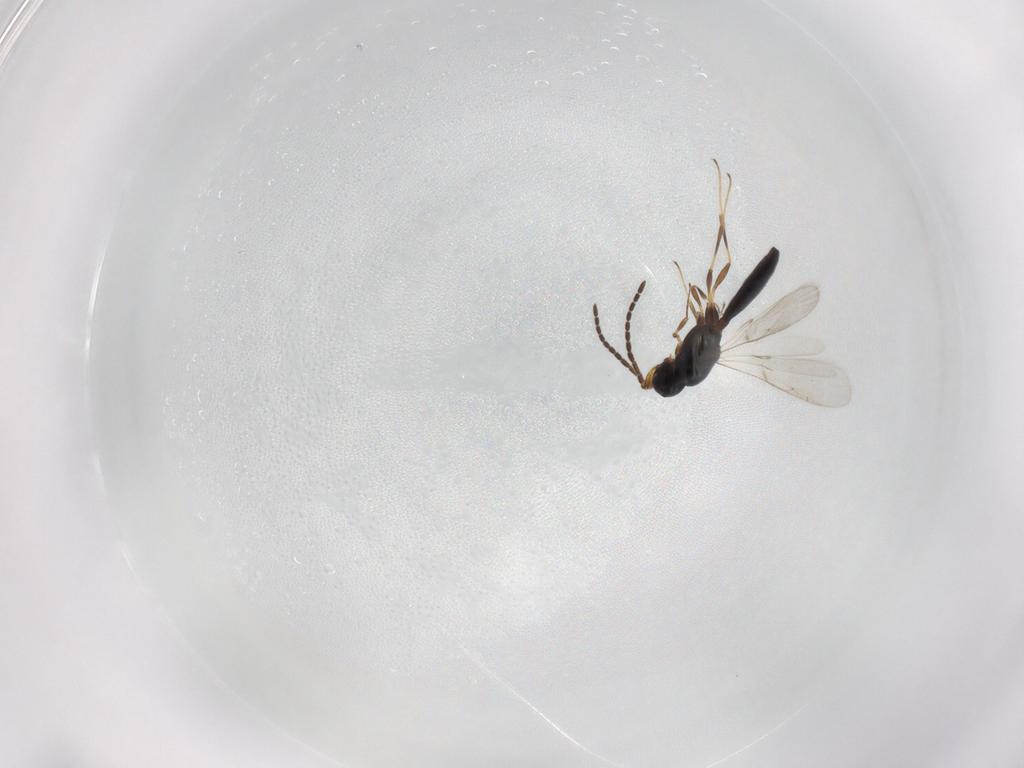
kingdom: Animalia
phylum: Arthropoda
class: Insecta
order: Hymenoptera
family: Scelionidae
